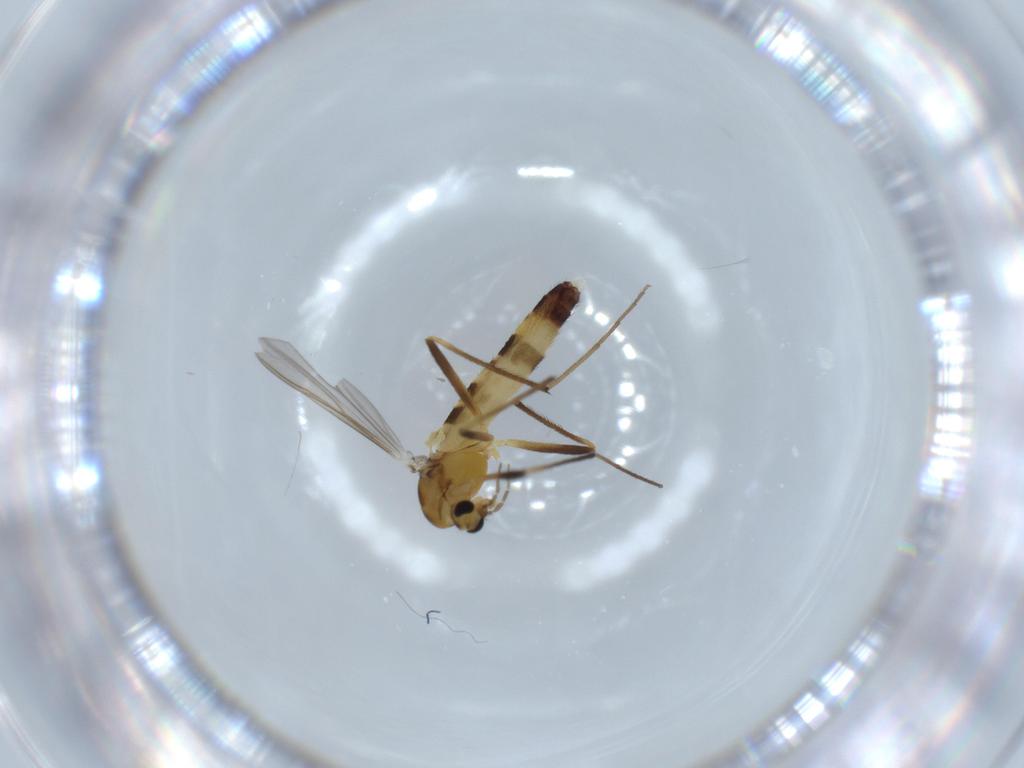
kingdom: Animalia
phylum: Arthropoda
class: Insecta
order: Diptera
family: Chironomidae
